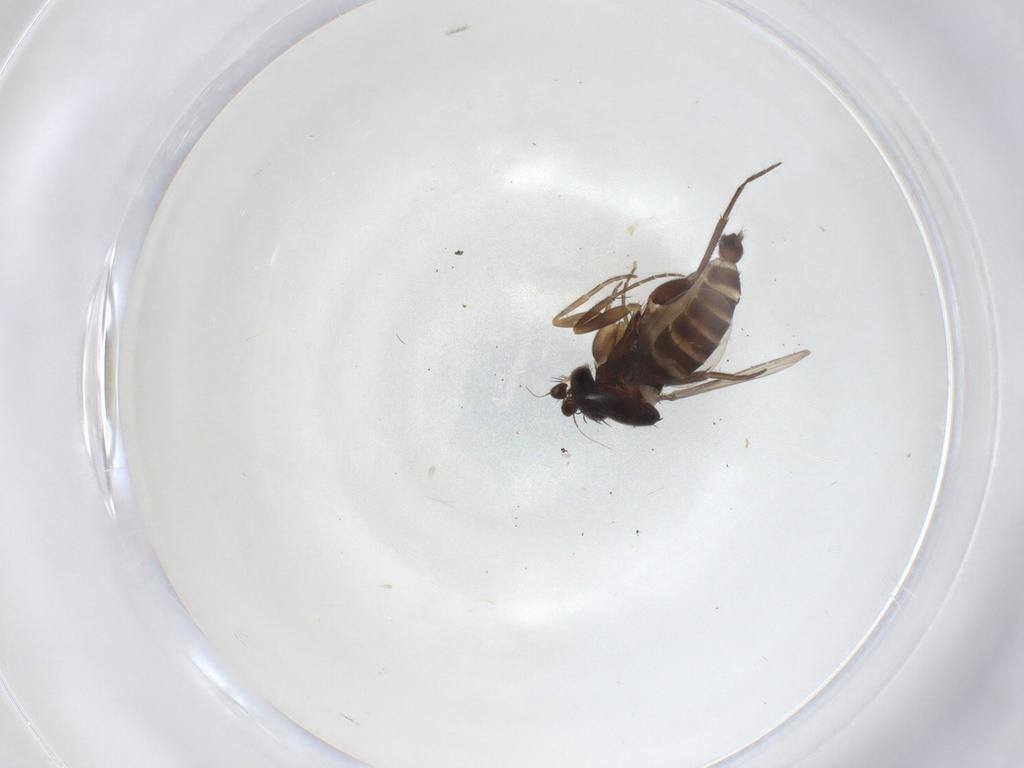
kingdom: Animalia
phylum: Arthropoda
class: Insecta
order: Diptera
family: Phoridae
